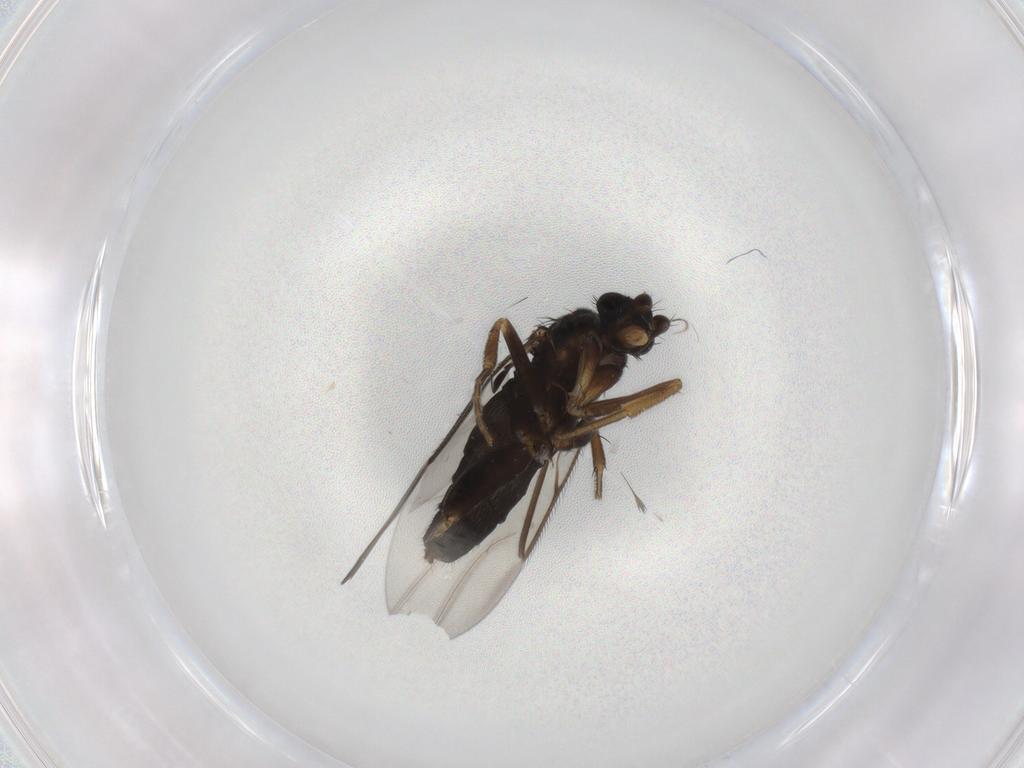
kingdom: Animalia
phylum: Arthropoda
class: Insecta
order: Diptera
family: Phoridae
